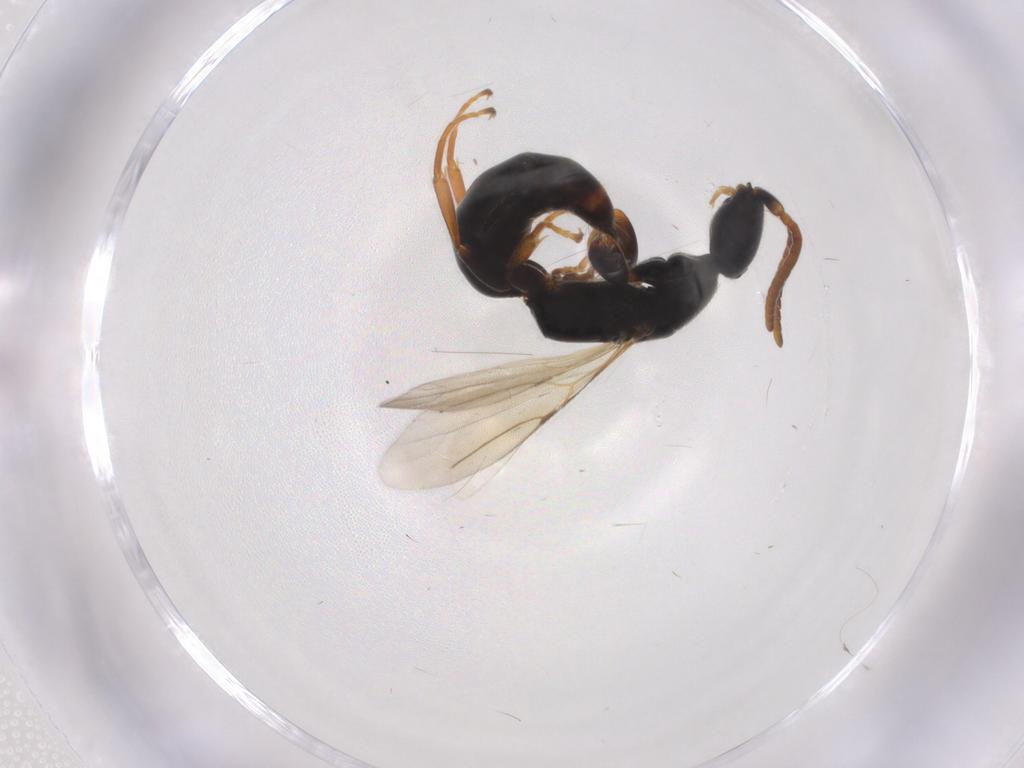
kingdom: Animalia
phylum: Arthropoda
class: Insecta
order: Hymenoptera
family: Bethylidae
